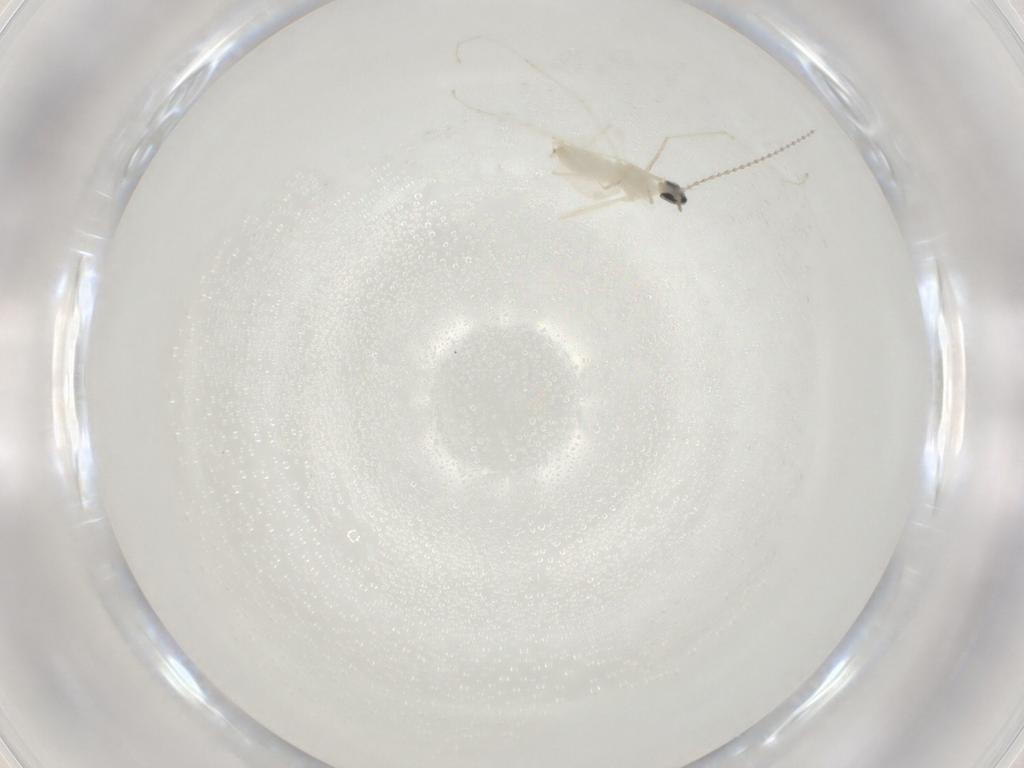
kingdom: Animalia
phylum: Arthropoda
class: Insecta
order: Diptera
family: Cecidomyiidae
